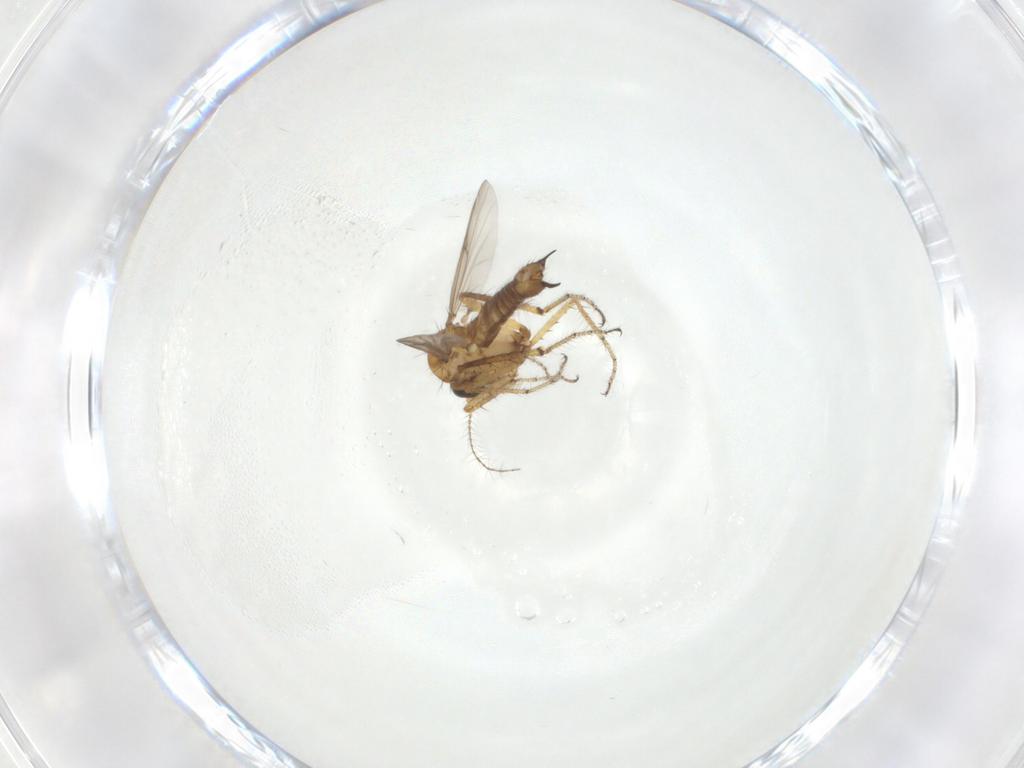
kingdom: Animalia
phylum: Arthropoda
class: Insecta
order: Diptera
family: Ceratopogonidae
